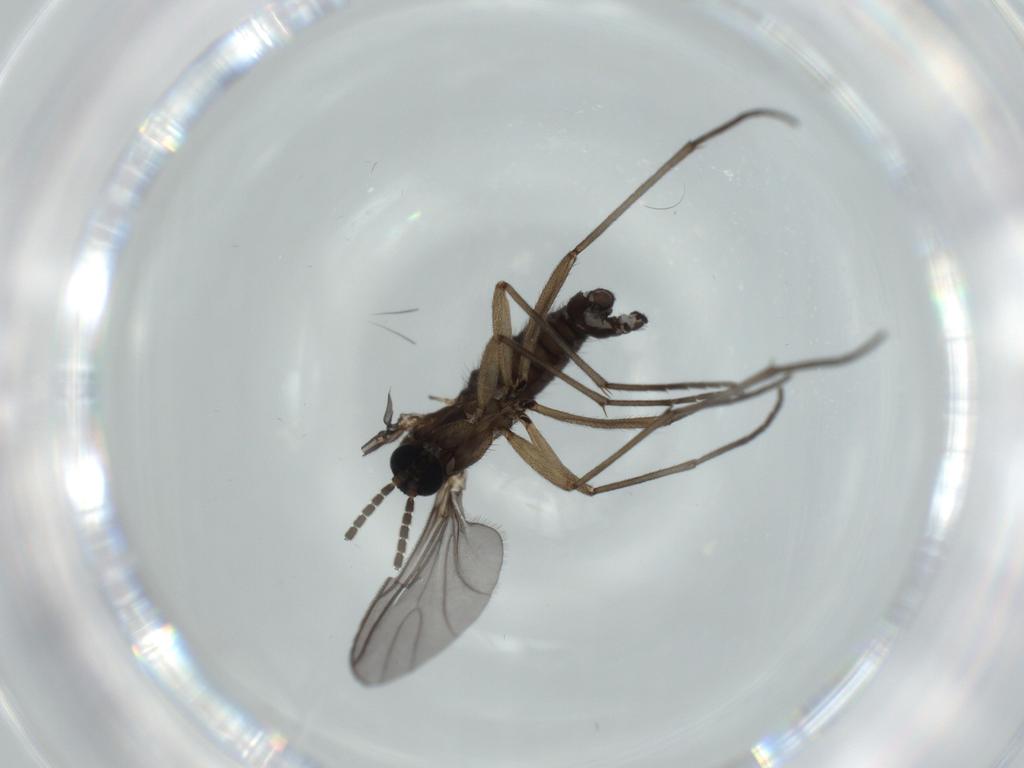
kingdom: Animalia
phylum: Arthropoda
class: Insecta
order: Diptera
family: Sciaridae
